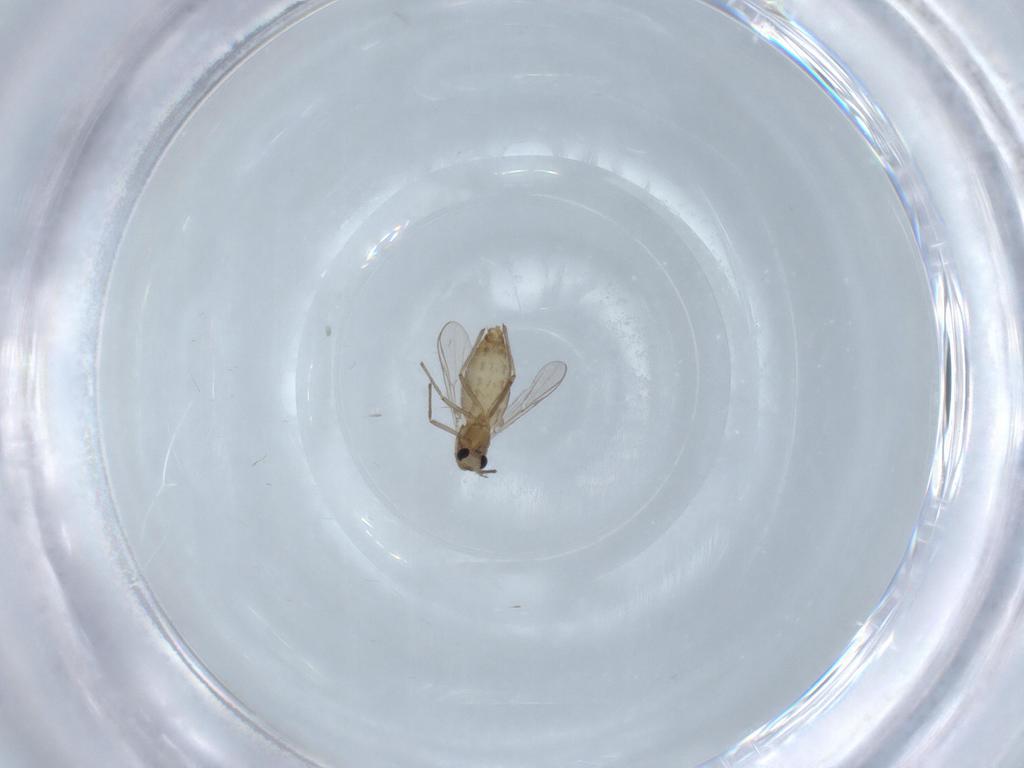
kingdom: Animalia
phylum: Arthropoda
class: Insecta
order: Diptera
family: Chironomidae
